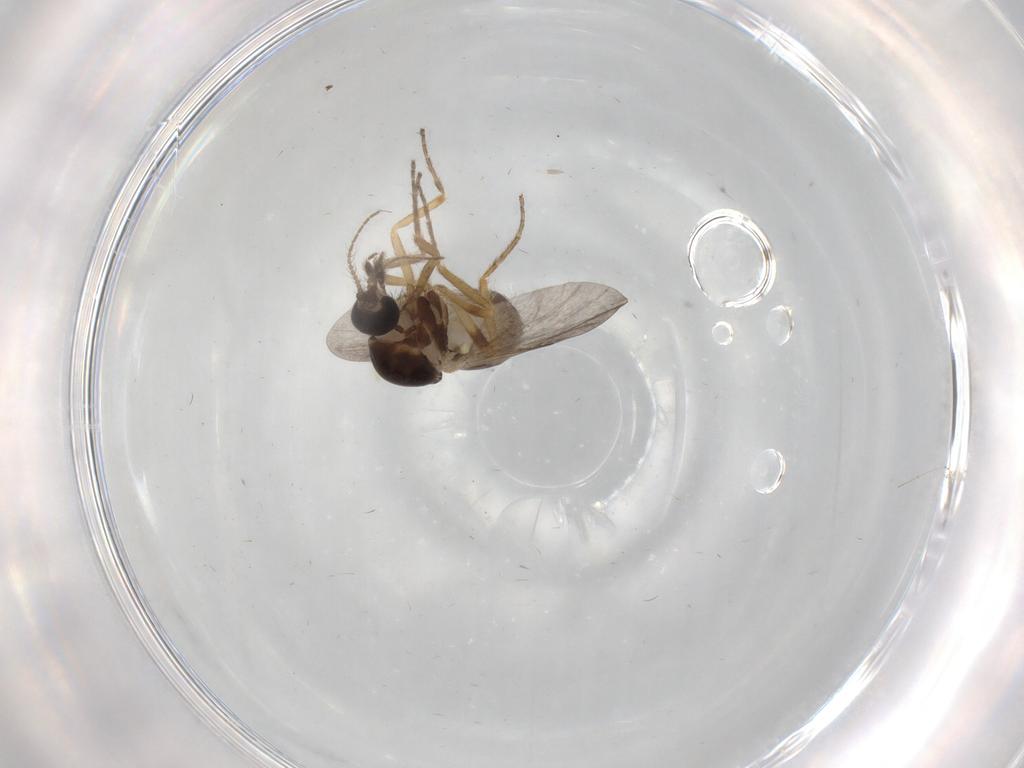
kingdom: Animalia
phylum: Arthropoda
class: Insecta
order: Diptera
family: Ceratopogonidae
